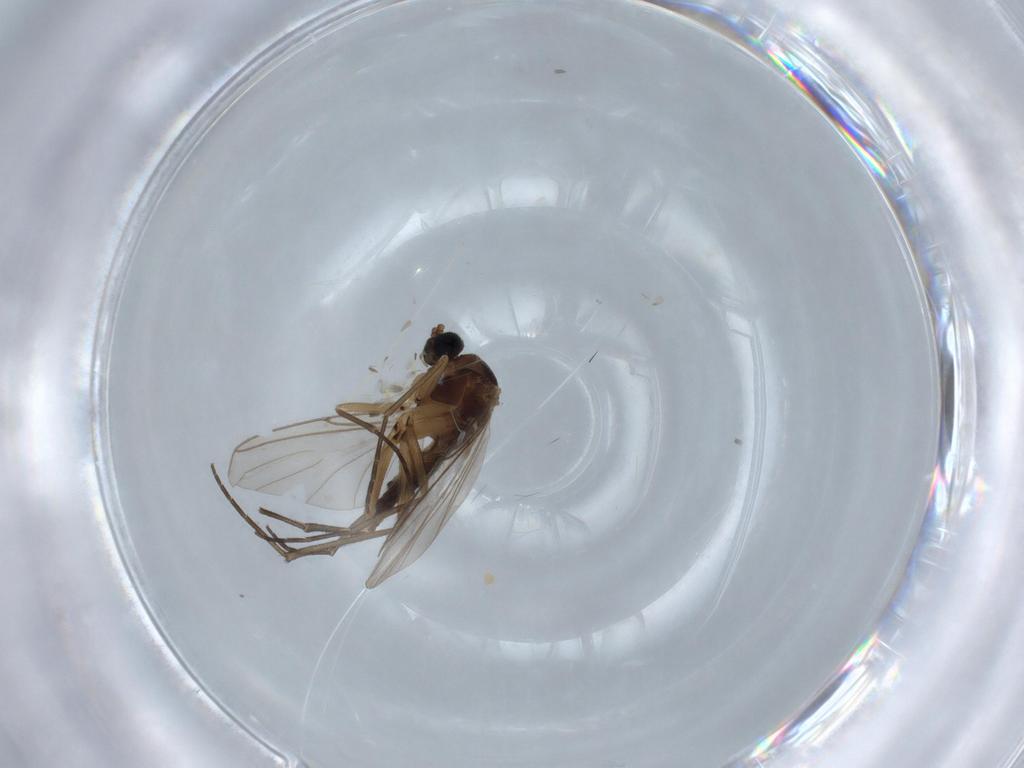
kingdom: Animalia
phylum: Arthropoda
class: Insecta
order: Diptera
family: Sciaridae
